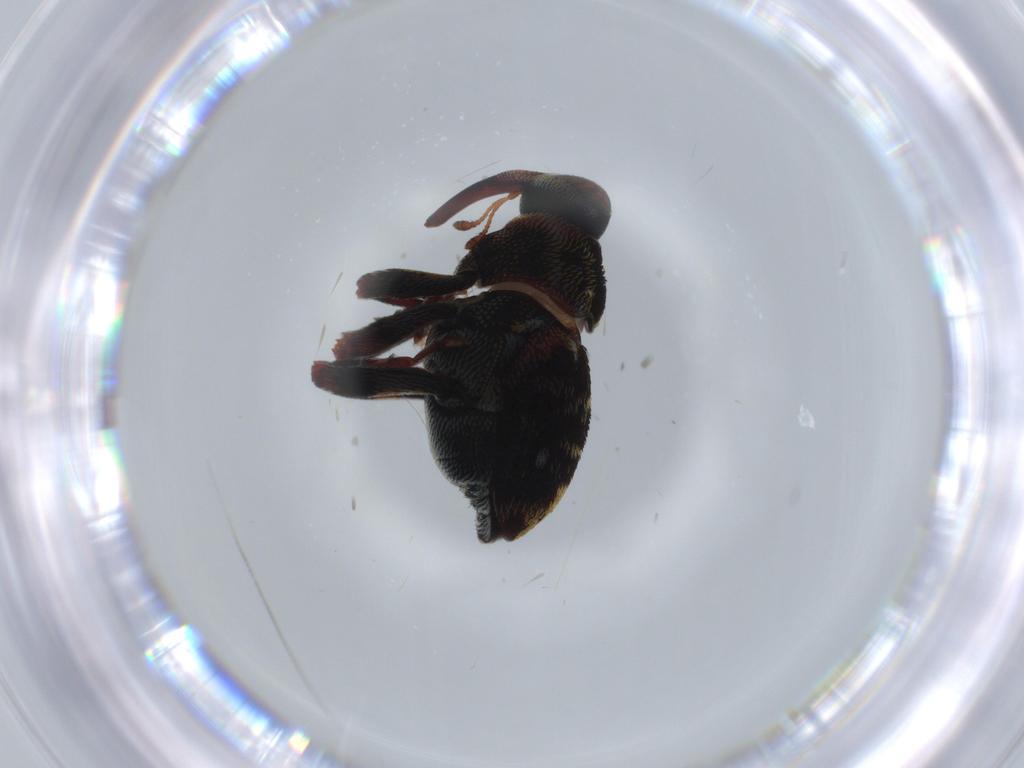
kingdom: Animalia
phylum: Arthropoda
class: Insecta
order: Coleoptera
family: Curculionidae
